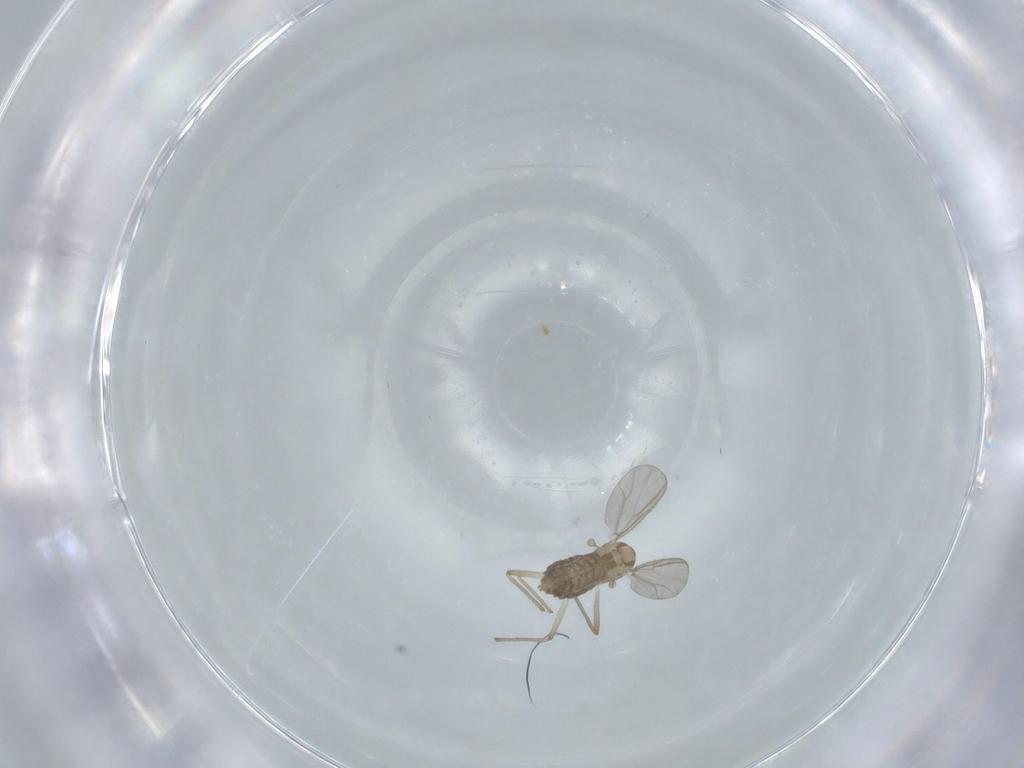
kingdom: Animalia
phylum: Arthropoda
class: Insecta
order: Diptera
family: Chironomidae
